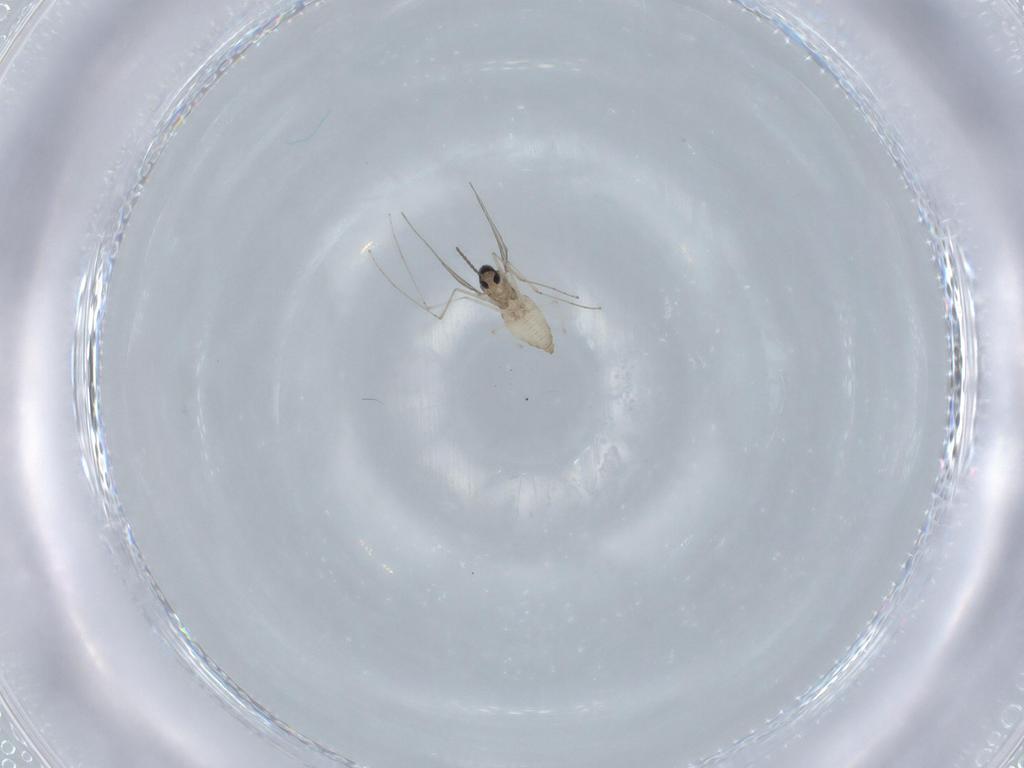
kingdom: Animalia
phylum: Arthropoda
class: Insecta
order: Diptera
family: Cecidomyiidae
